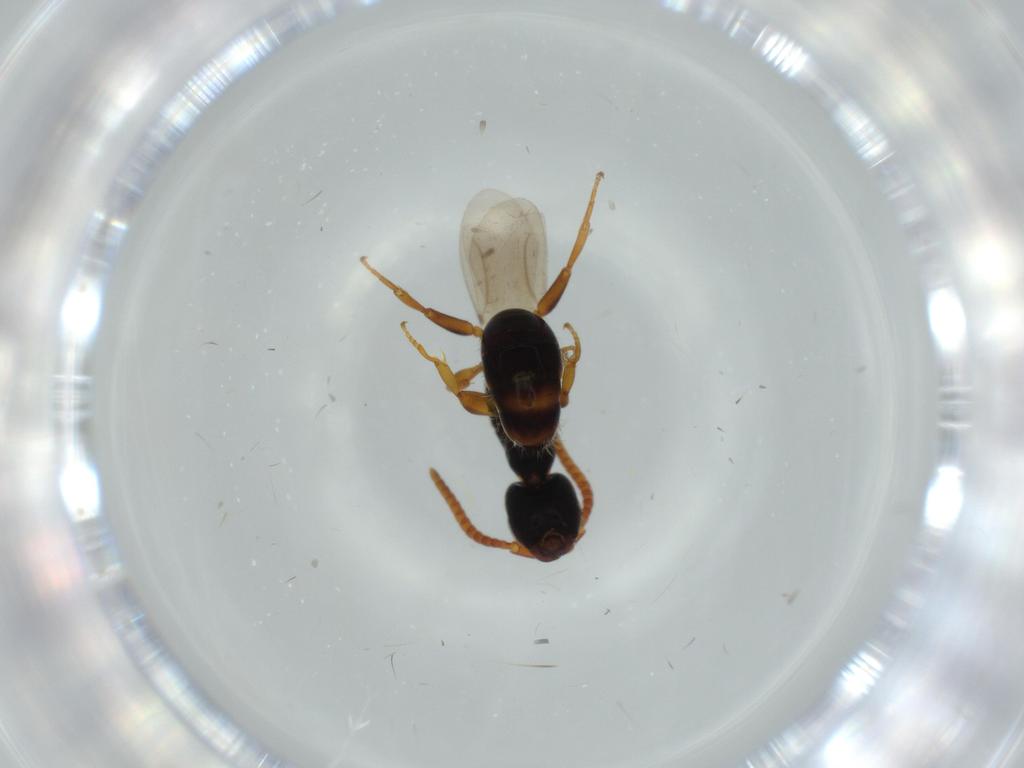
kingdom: Animalia
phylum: Arthropoda
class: Insecta
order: Hymenoptera
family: Bethylidae
